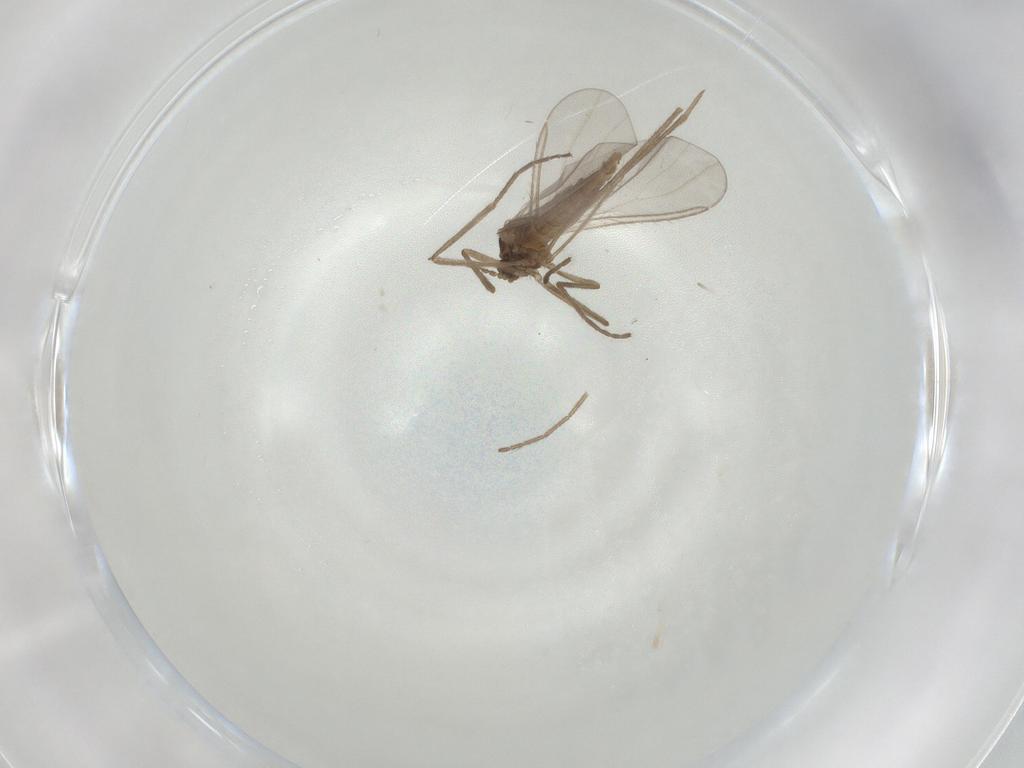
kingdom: Animalia
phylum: Arthropoda
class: Insecta
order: Diptera
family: Cecidomyiidae
